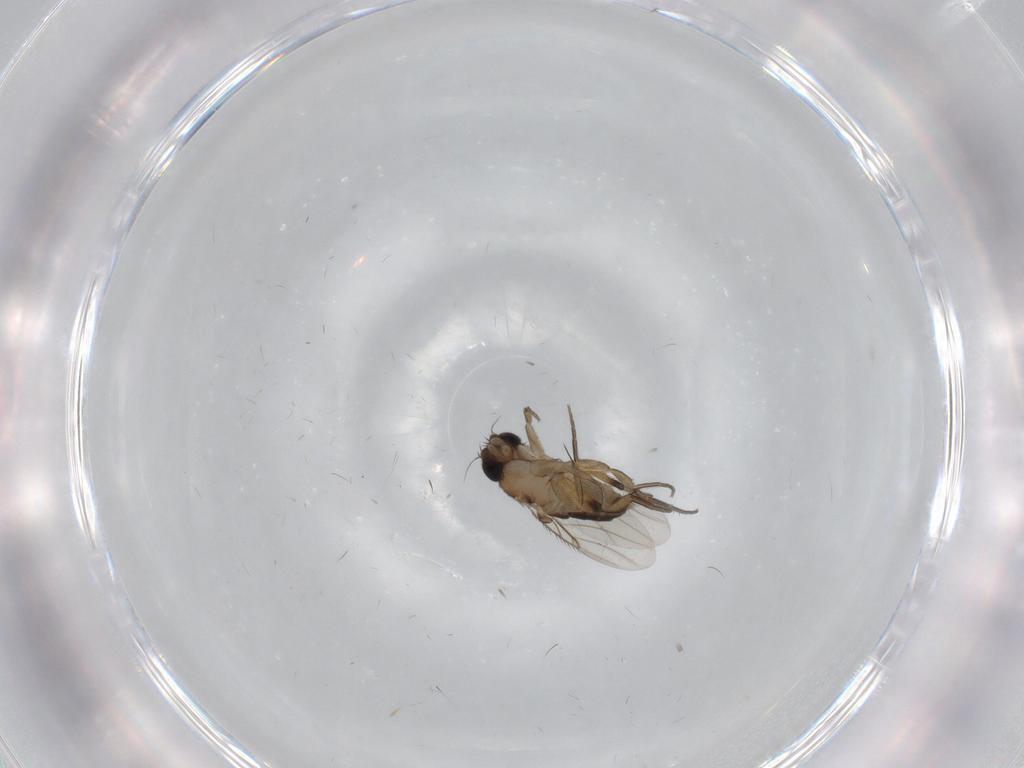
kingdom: Animalia
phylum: Arthropoda
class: Insecta
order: Diptera
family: Phoridae
